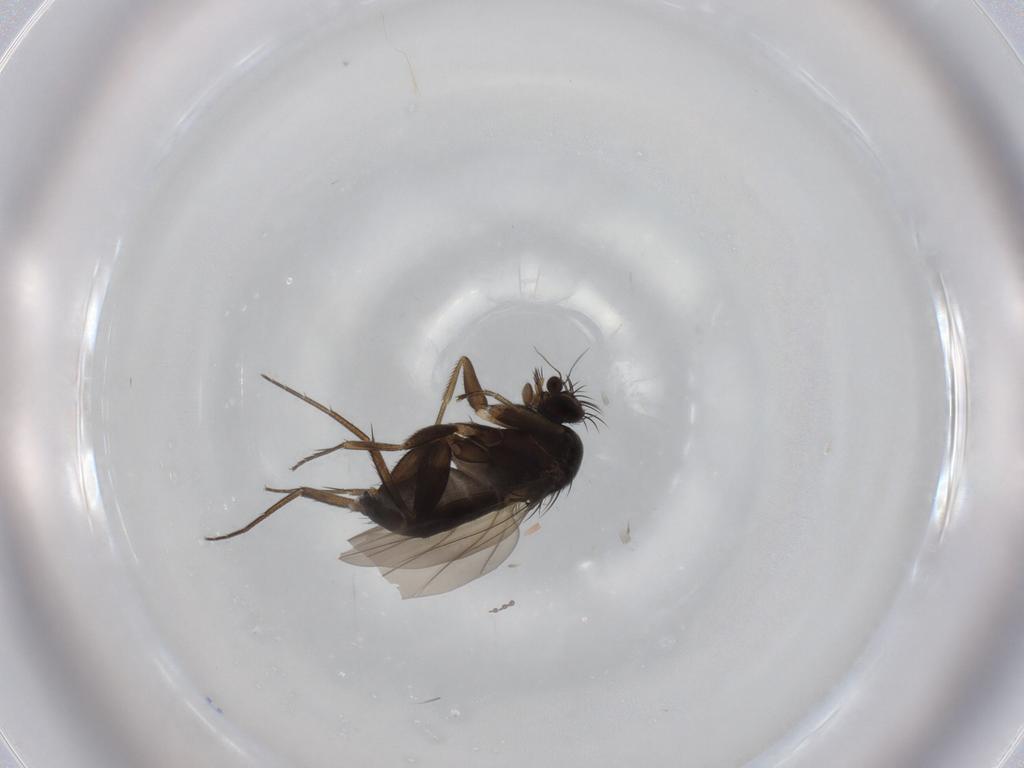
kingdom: Animalia
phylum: Arthropoda
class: Insecta
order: Diptera
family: Phoridae
